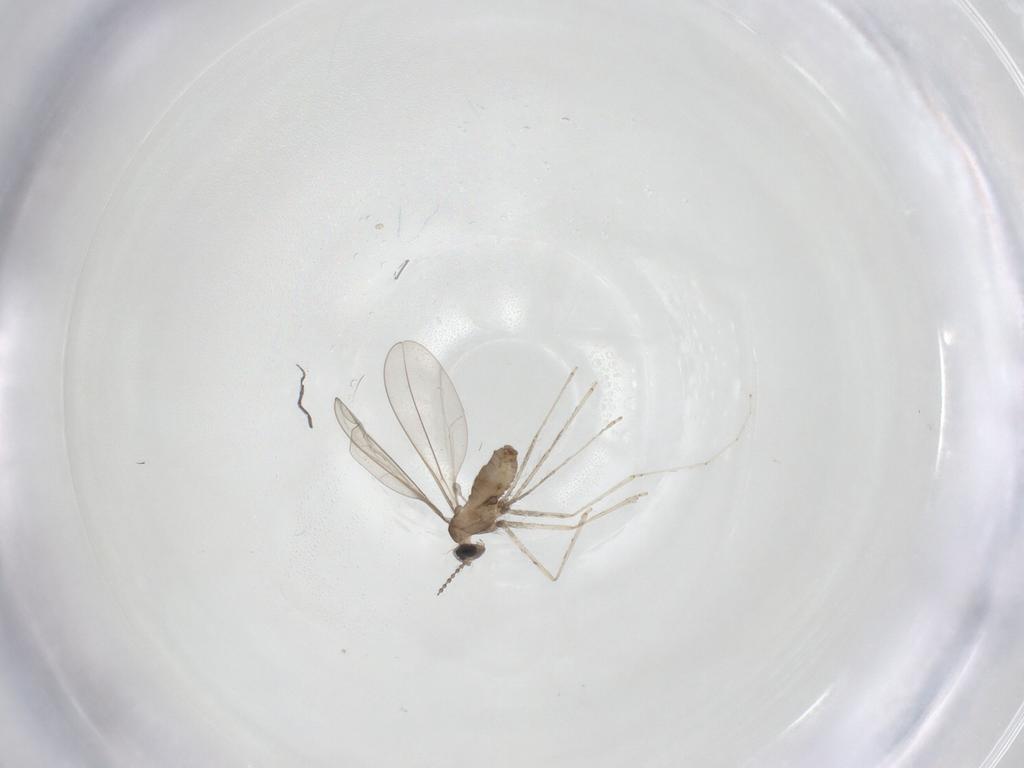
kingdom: Animalia
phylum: Arthropoda
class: Insecta
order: Diptera
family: Cecidomyiidae
